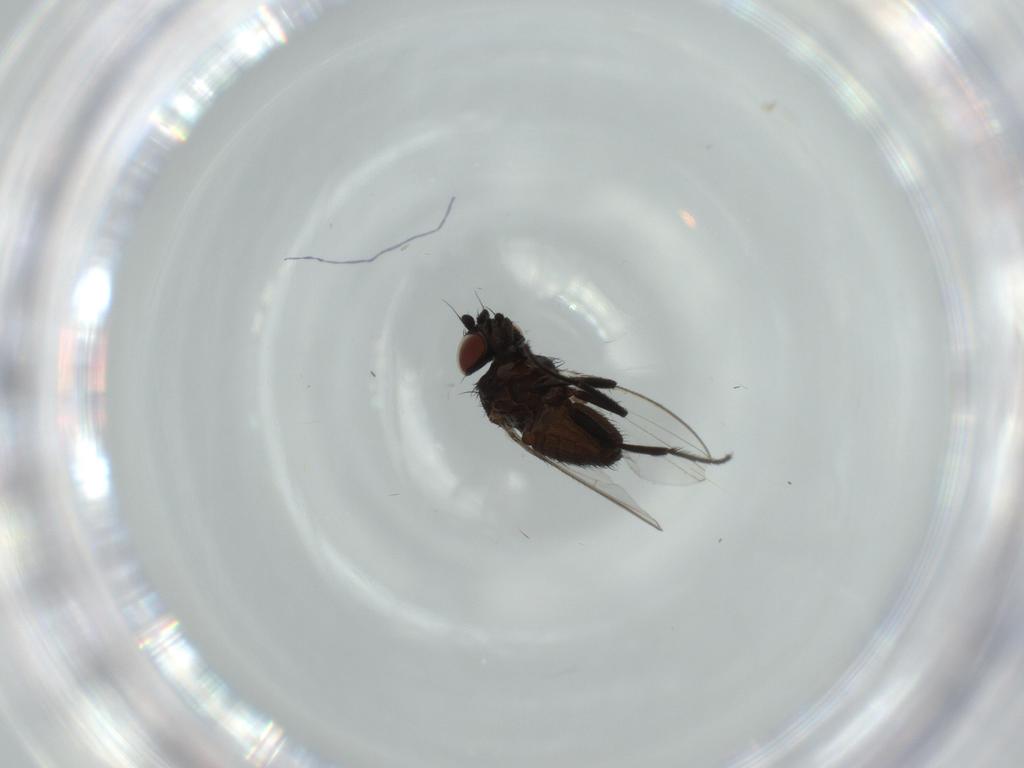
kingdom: Animalia
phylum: Arthropoda
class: Insecta
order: Diptera
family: Milichiidae
